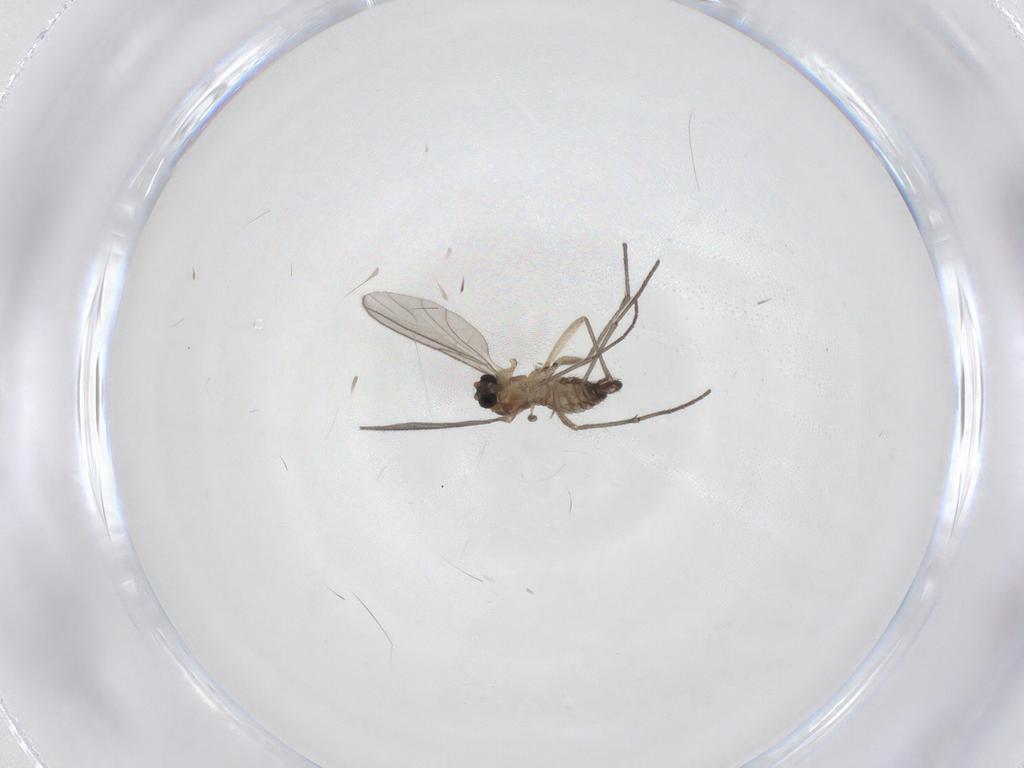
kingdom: Animalia
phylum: Arthropoda
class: Insecta
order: Diptera
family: Sciaridae
